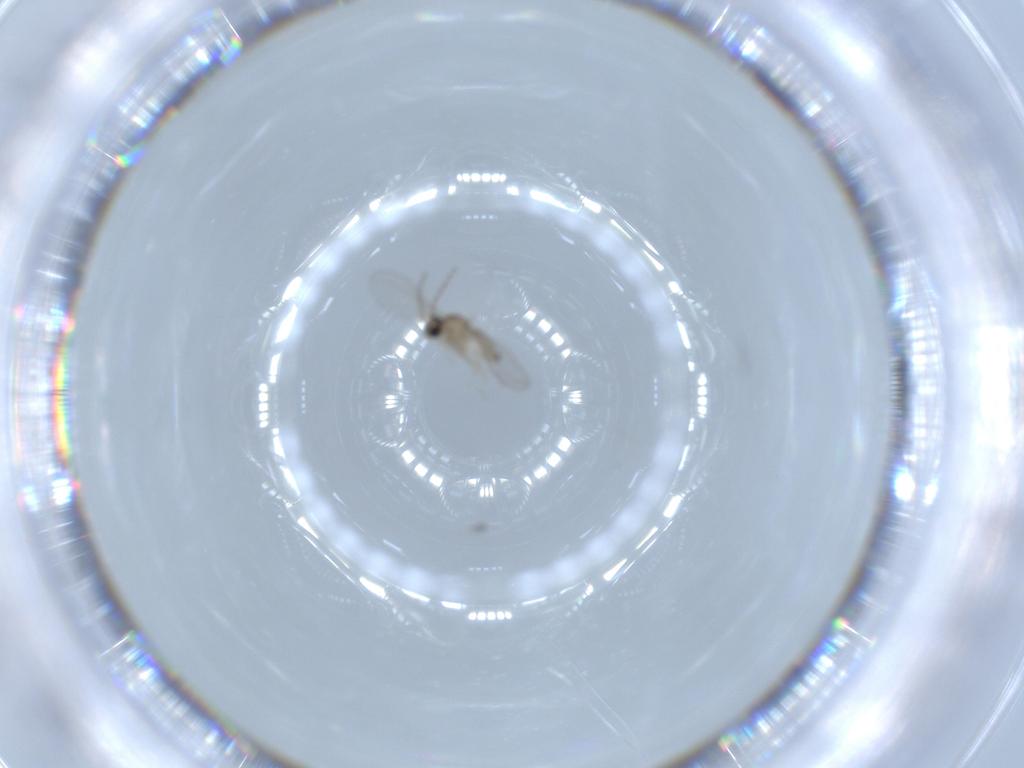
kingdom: Animalia
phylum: Arthropoda
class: Insecta
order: Diptera
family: Cecidomyiidae
